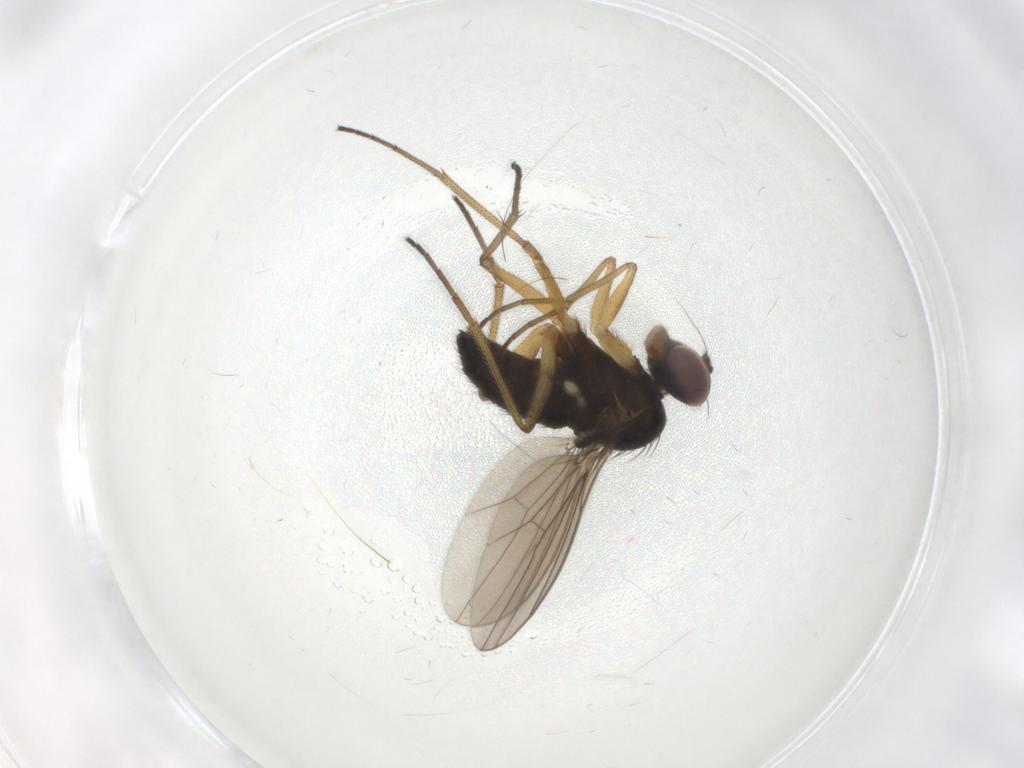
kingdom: Animalia
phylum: Arthropoda
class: Insecta
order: Diptera
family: Dolichopodidae
